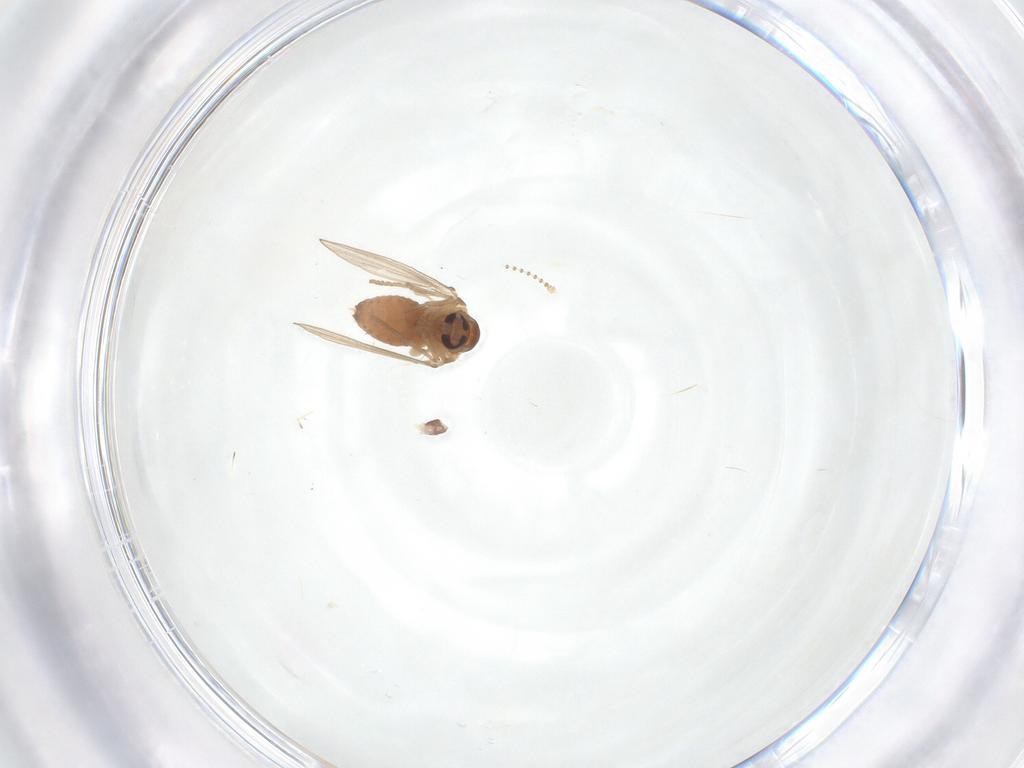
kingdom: Animalia
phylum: Arthropoda
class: Insecta
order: Diptera
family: Psychodidae
